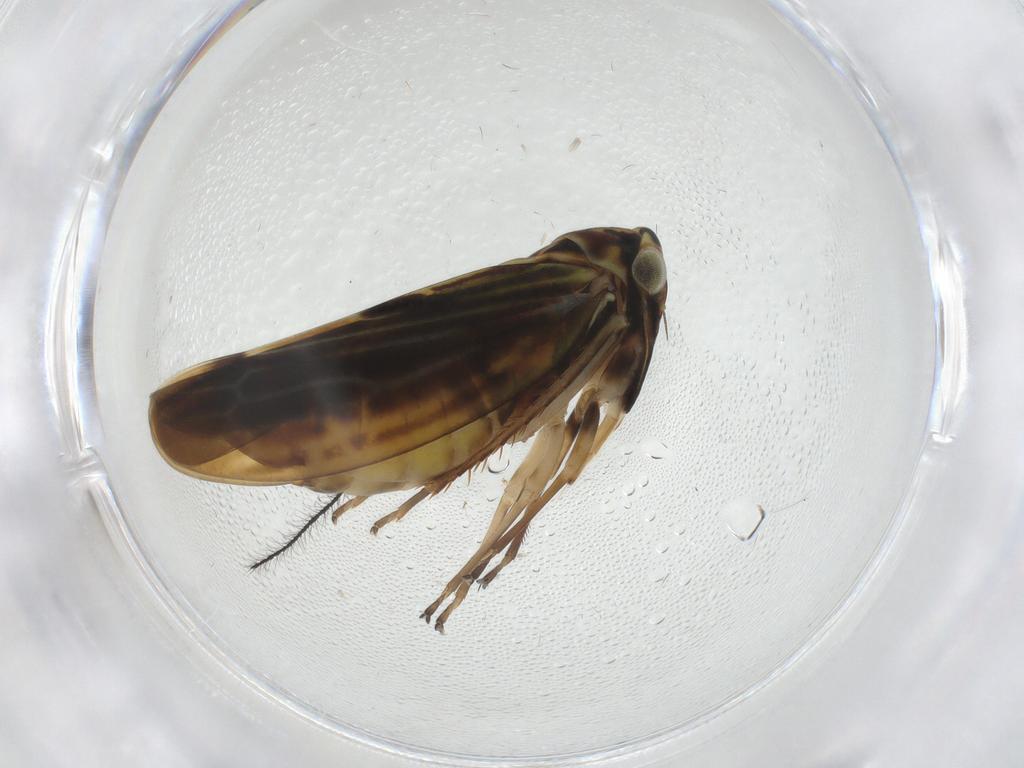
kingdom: Animalia
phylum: Arthropoda
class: Insecta
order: Hemiptera
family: Cicadellidae
